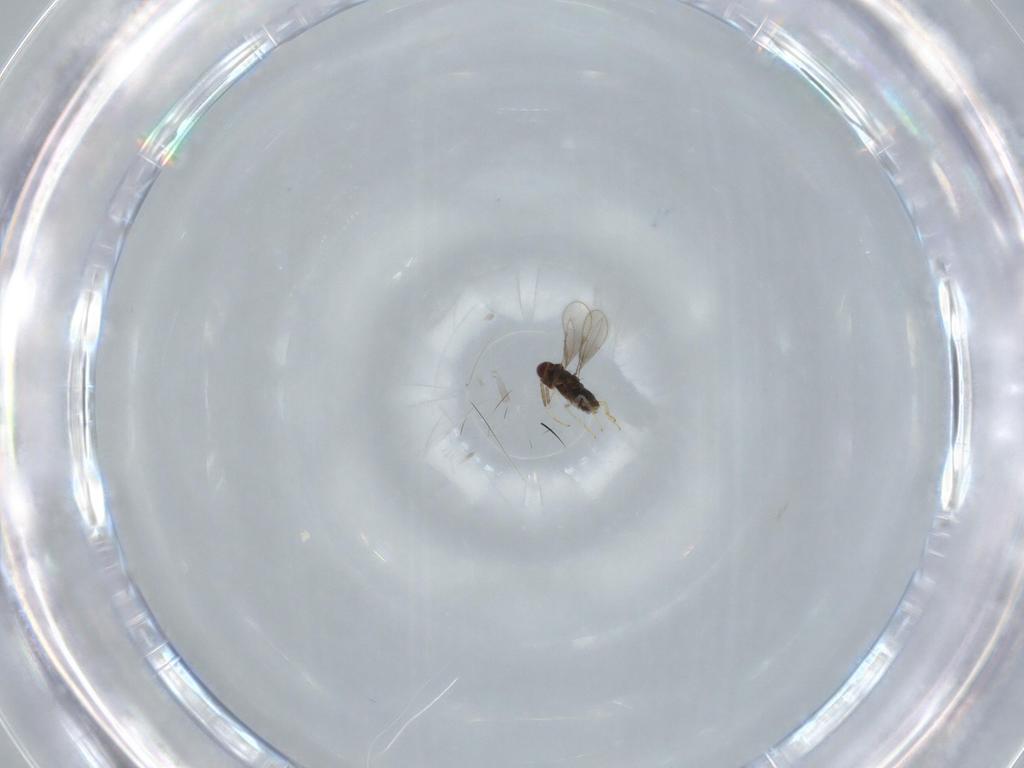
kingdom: Animalia
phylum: Arthropoda
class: Insecta
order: Hymenoptera
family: Aphelinidae
